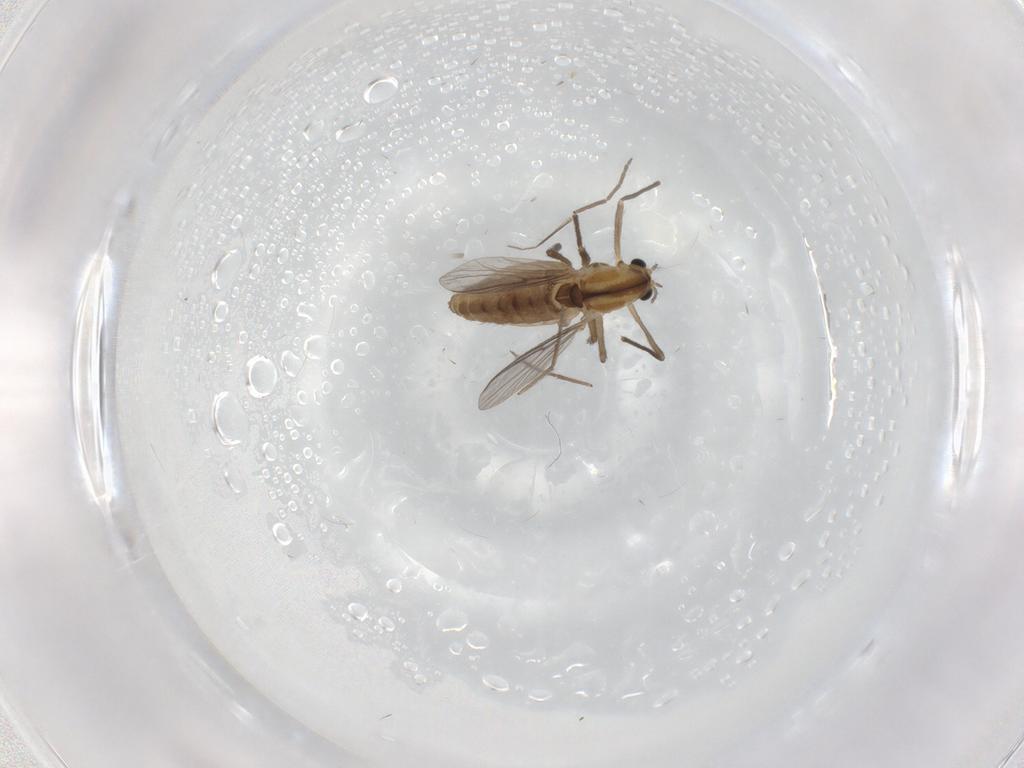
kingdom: Animalia
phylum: Arthropoda
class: Insecta
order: Diptera
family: Chironomidae
